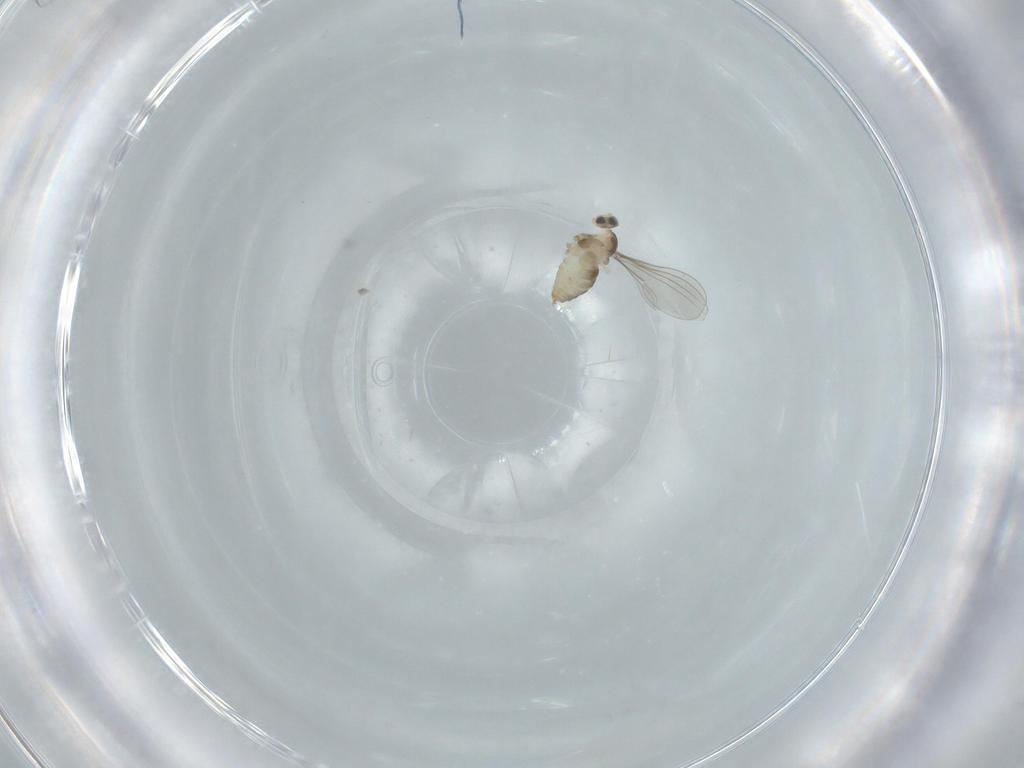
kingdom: Animalia
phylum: Arthropoda
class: Insecta
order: Diptera
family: Cecidomyiidae
